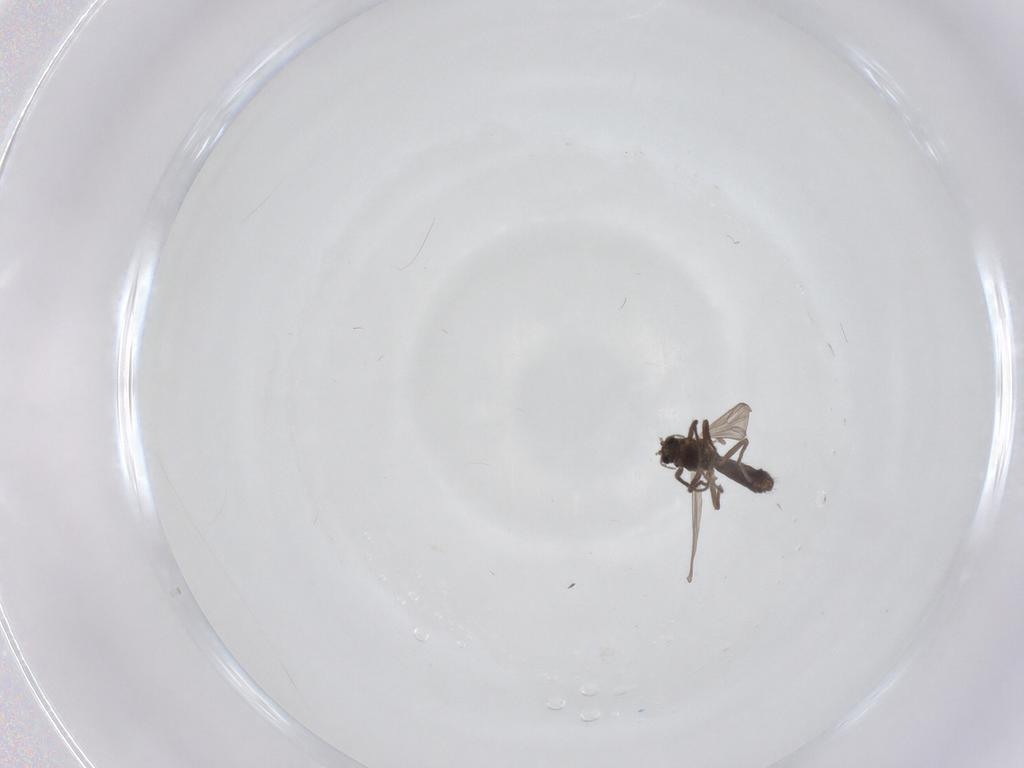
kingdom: Animalia
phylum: Arthropoda
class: Insecta
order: Diptera
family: Chironomidae
